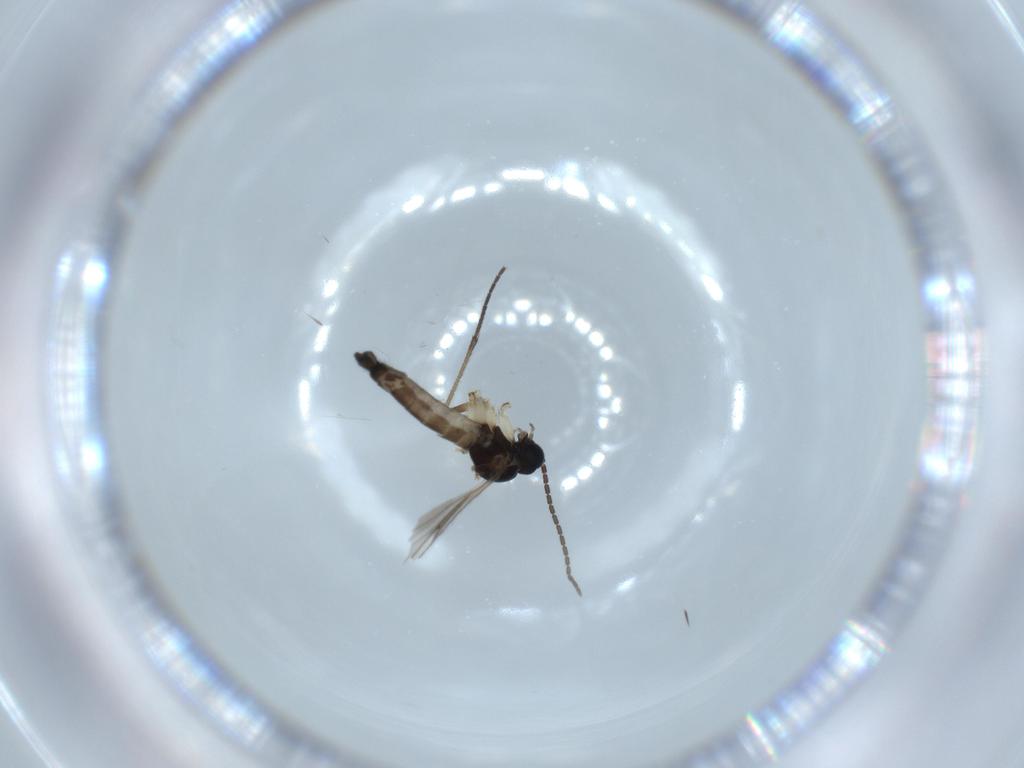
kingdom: Animalia
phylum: Arthropoda
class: Insecta
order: Diptera
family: Sciaridae
